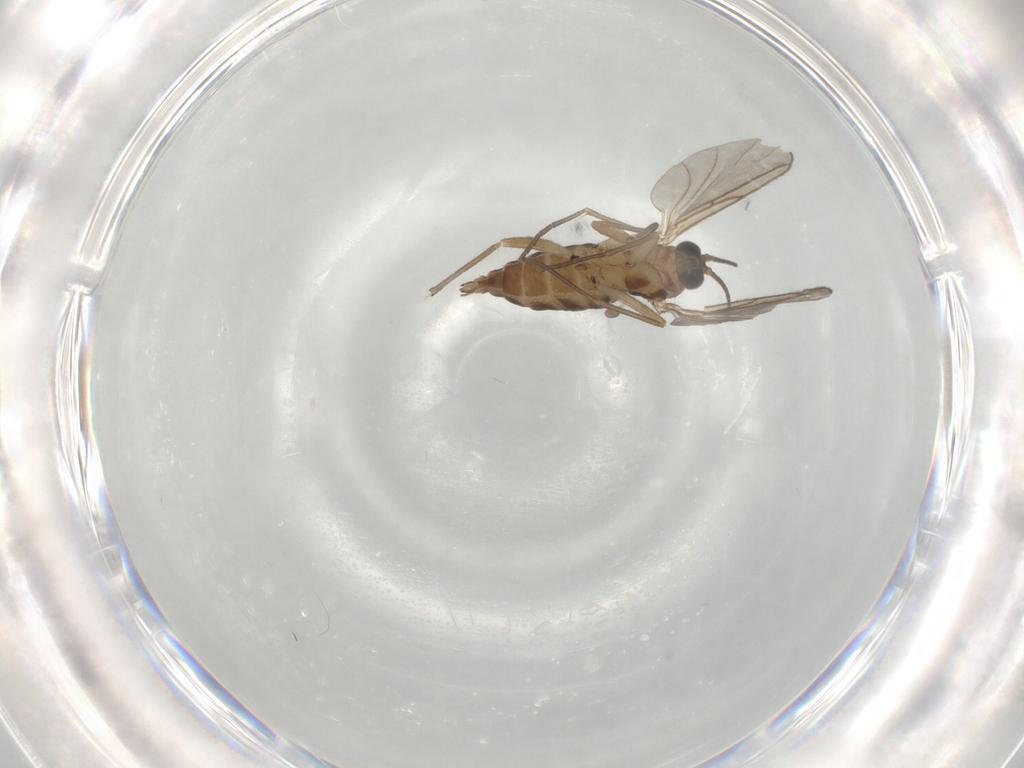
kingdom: Animalia
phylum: Arthropoda
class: Insecta
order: Diptera
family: Sciaridae
